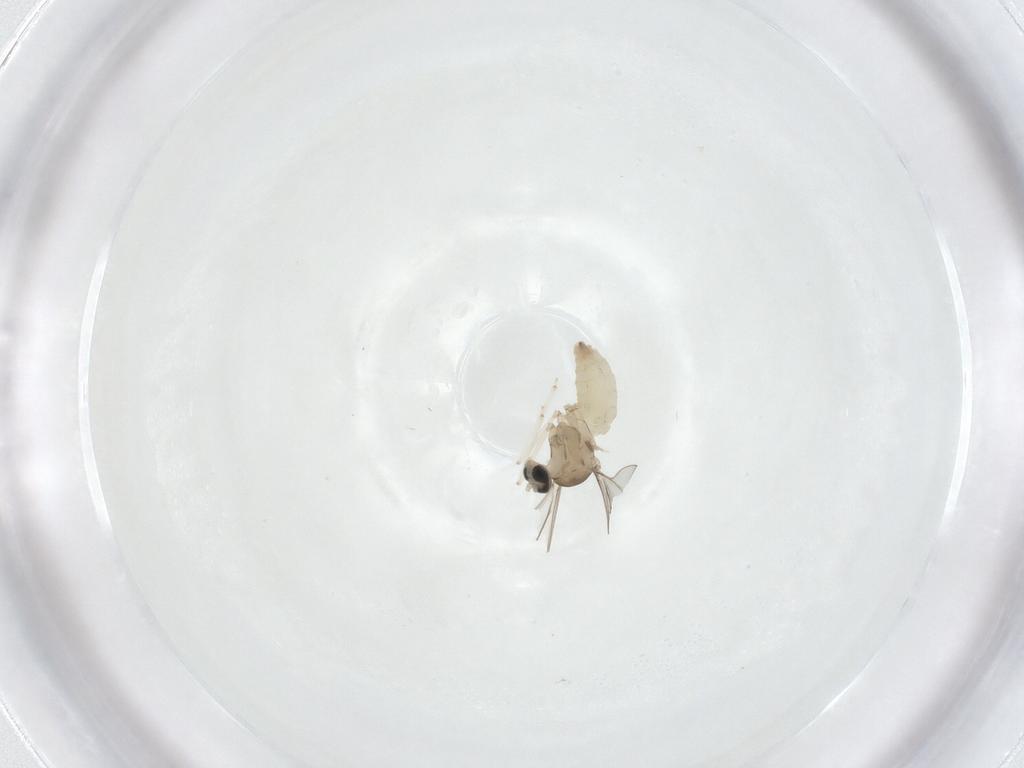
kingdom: Animalia
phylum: Arthropoda
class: Insecta
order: Diptera
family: Cecidomyiidae
